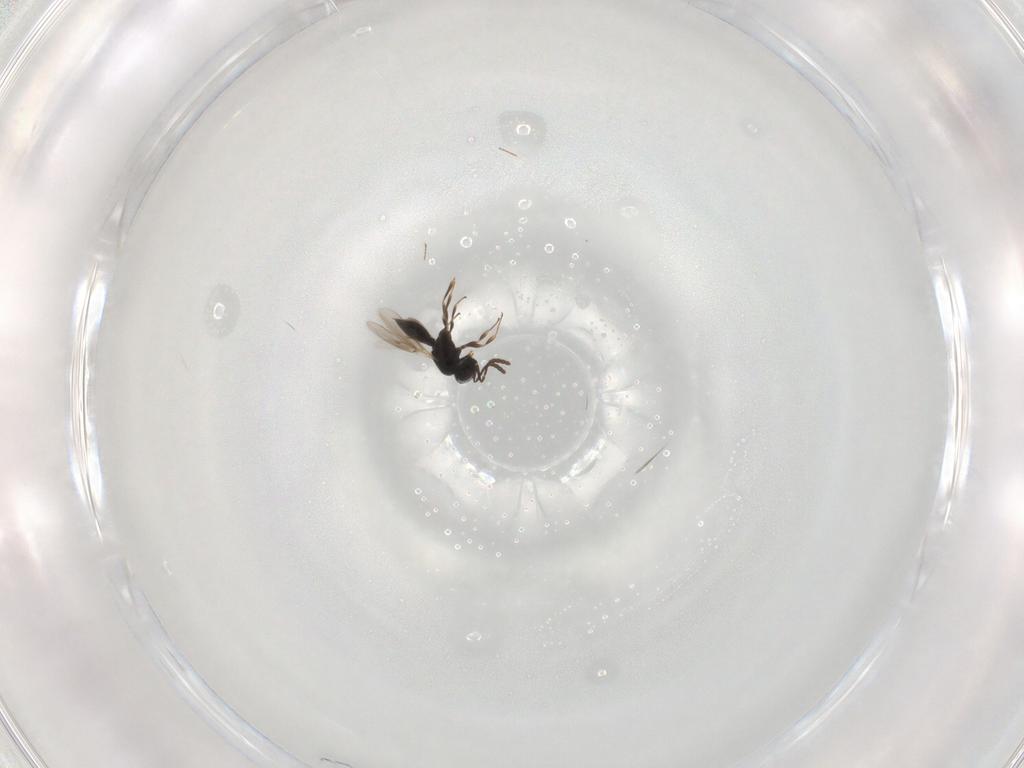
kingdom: Animalia
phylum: Arthropoda
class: Insecta
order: Hymenoptera
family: Scelionidae
